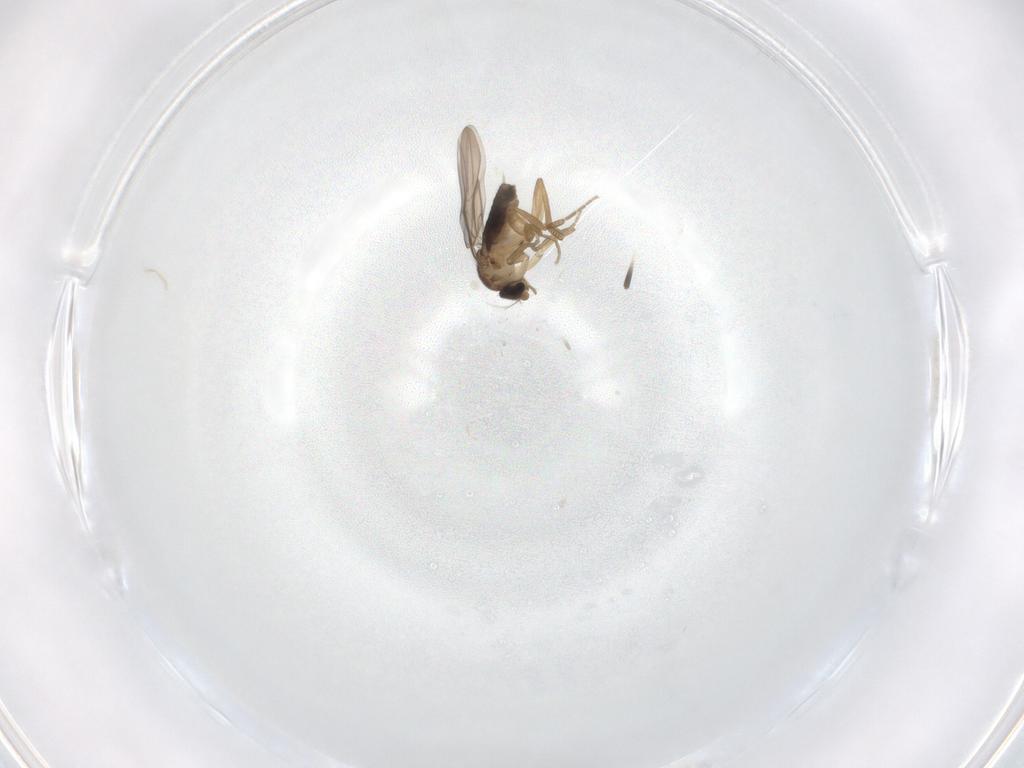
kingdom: Animalia
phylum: Arthropoda
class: Insecta
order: Diptera
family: Phoridae
